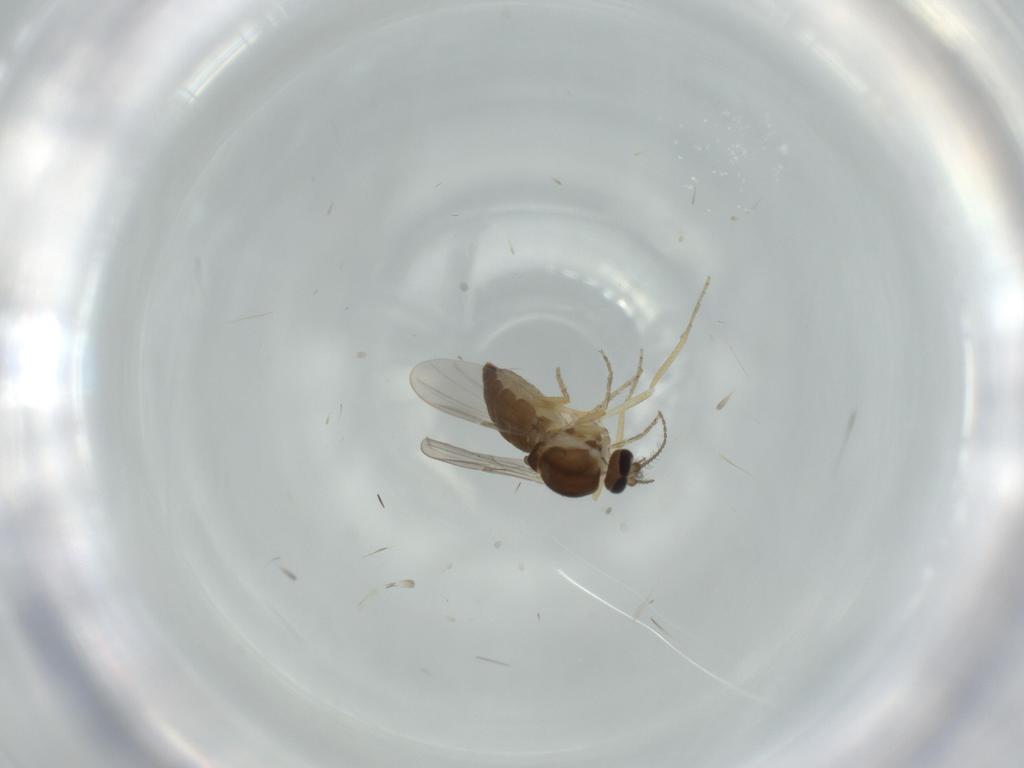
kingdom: Animalia
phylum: Arthropoda
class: Insecta
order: Diptera
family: Ceratopogonidae
